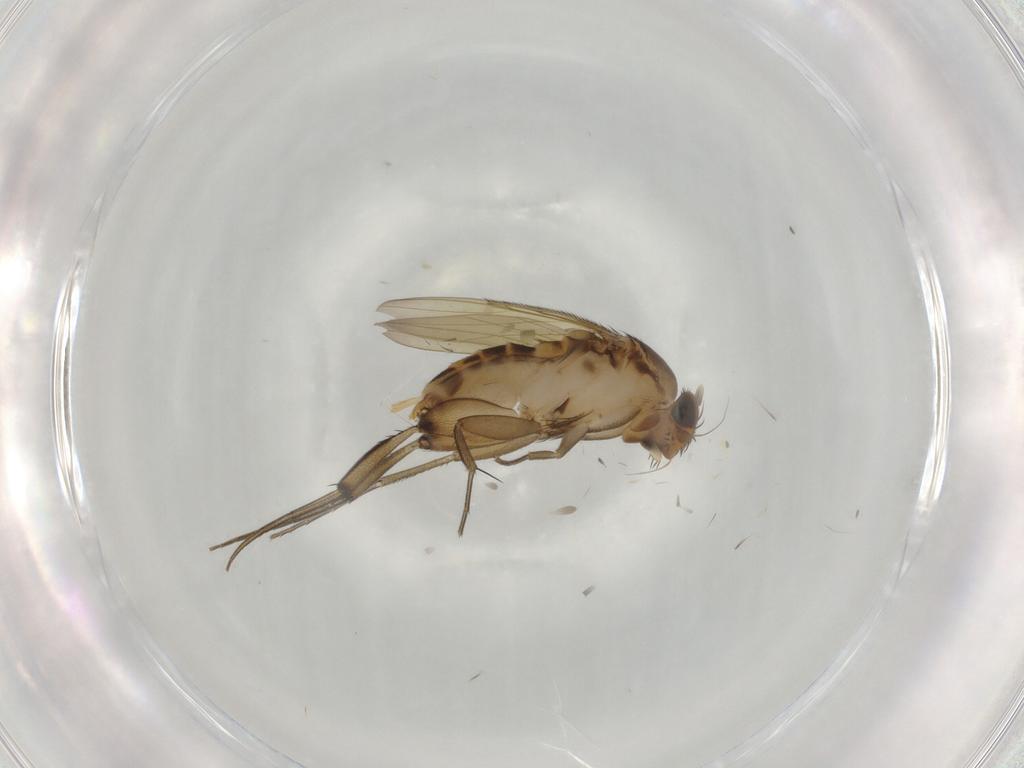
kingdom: Animalia
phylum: Arthropoda
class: Insecta
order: Diptera
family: Phoridae
